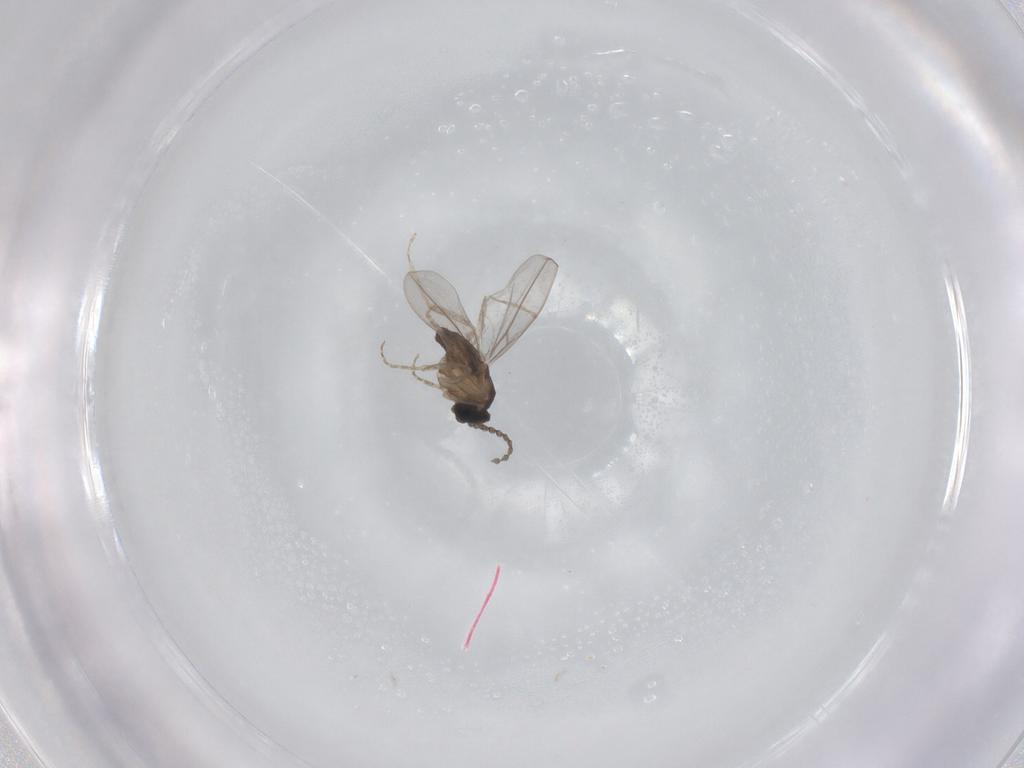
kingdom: Animalia
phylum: Arthropoda
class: Insecta
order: Diptera
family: Cecidomyiidae
